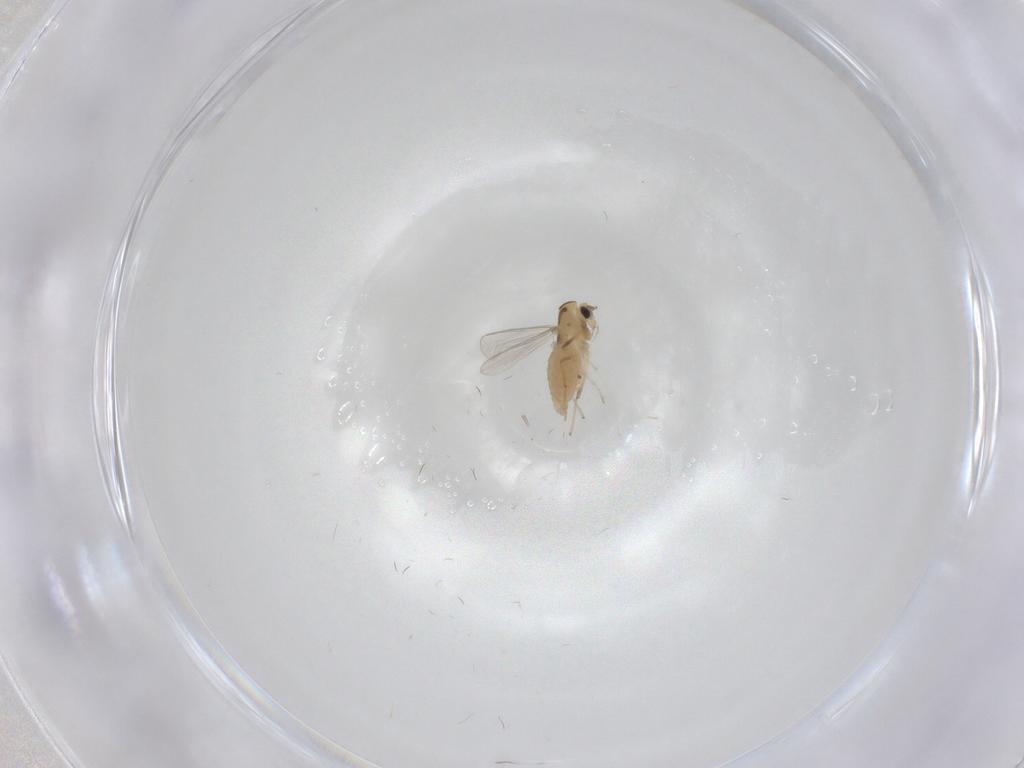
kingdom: Animalia
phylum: Arthropoda
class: Insecta
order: Diptera
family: Chironomidae
